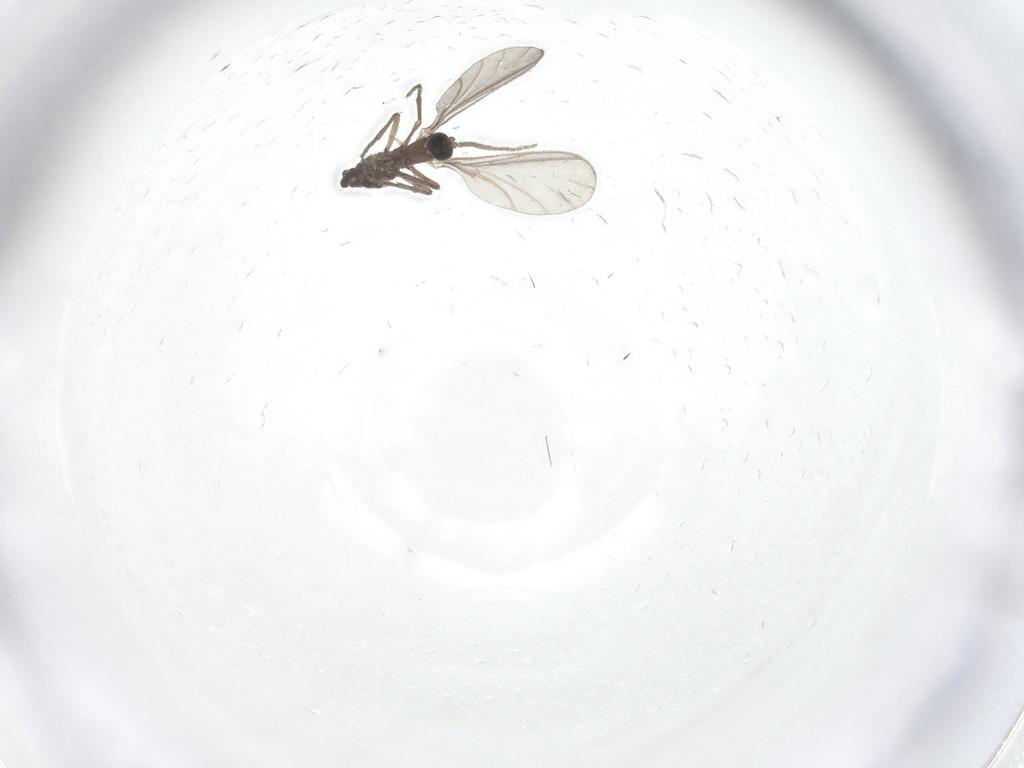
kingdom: Animalia
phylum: Arthropoda
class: Insecta
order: Diptera
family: Sciaridae
